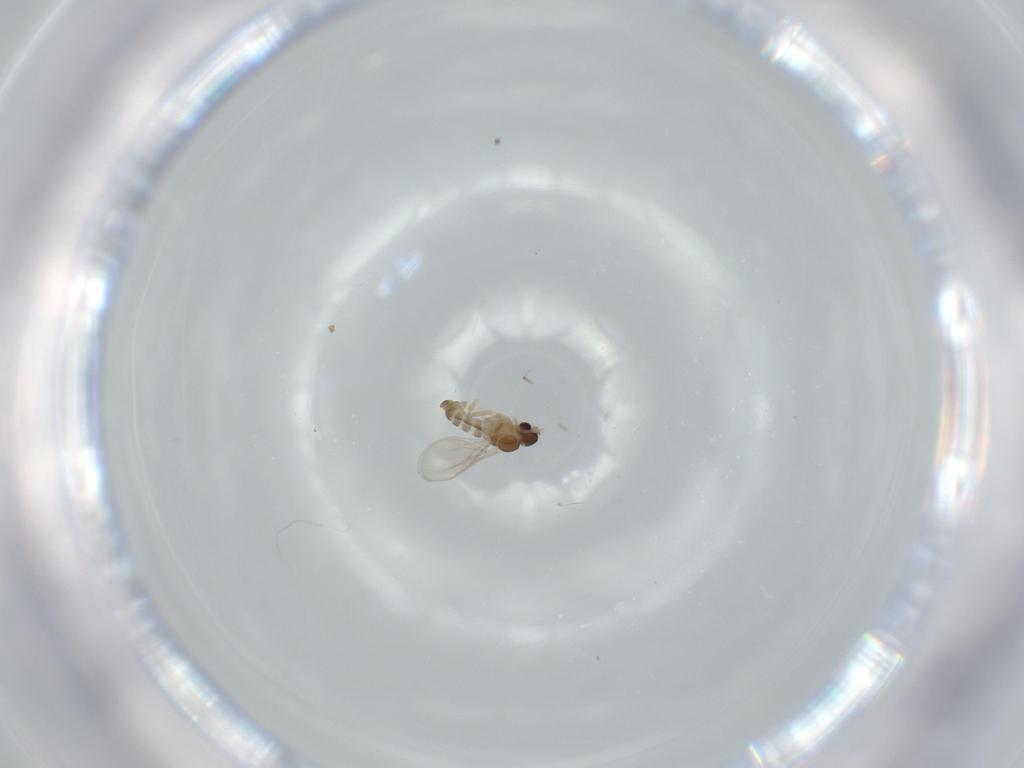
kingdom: Animalia
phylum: Arthropoda
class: Insecta
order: Diptera
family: Cecidomyiidae
